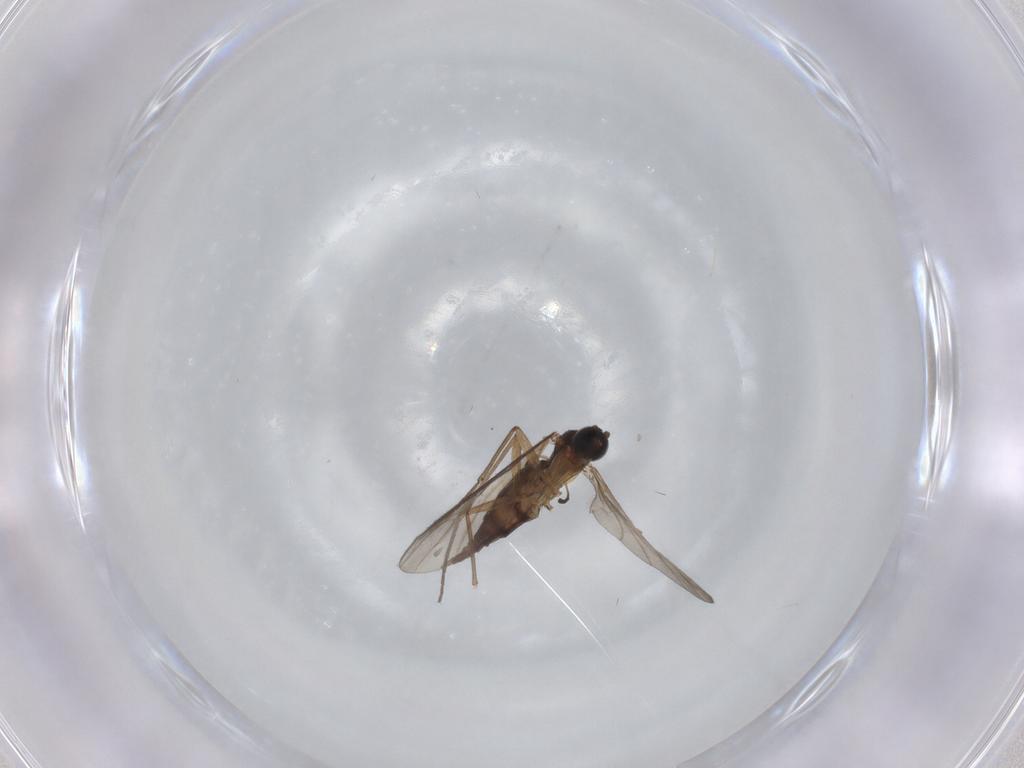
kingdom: Animalia
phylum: Arthropoda
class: Insecta
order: Diptera
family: Sciaridae
